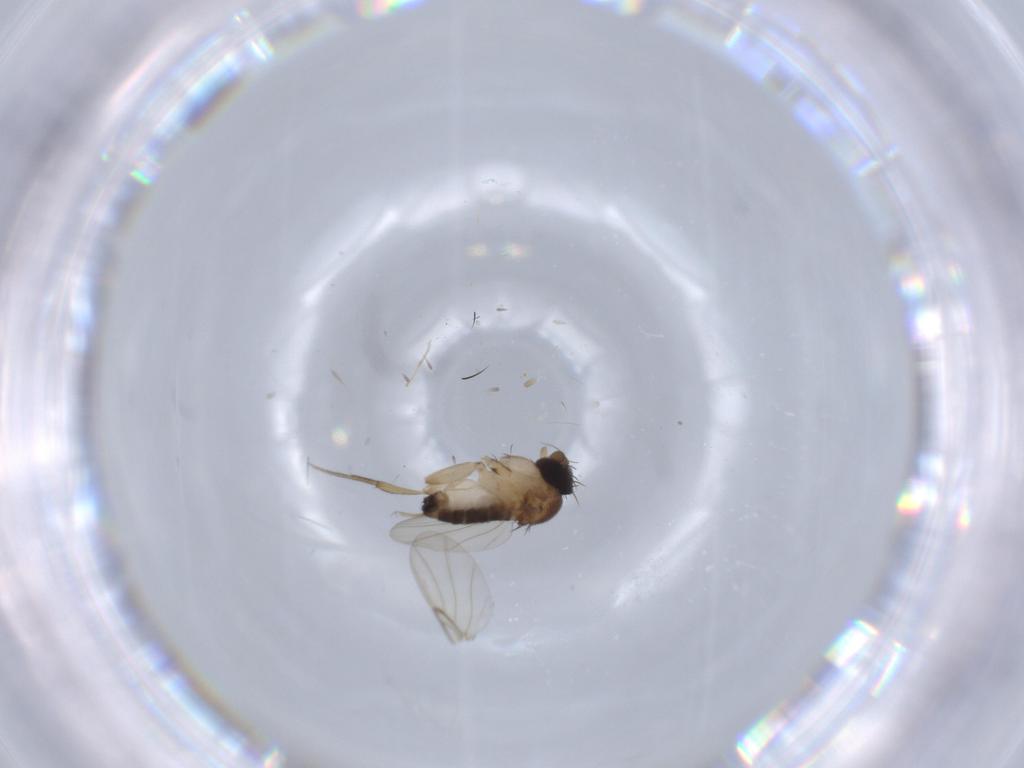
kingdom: Animalia
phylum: Arthropoda
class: Insecta
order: Diptera
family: Phoridae
